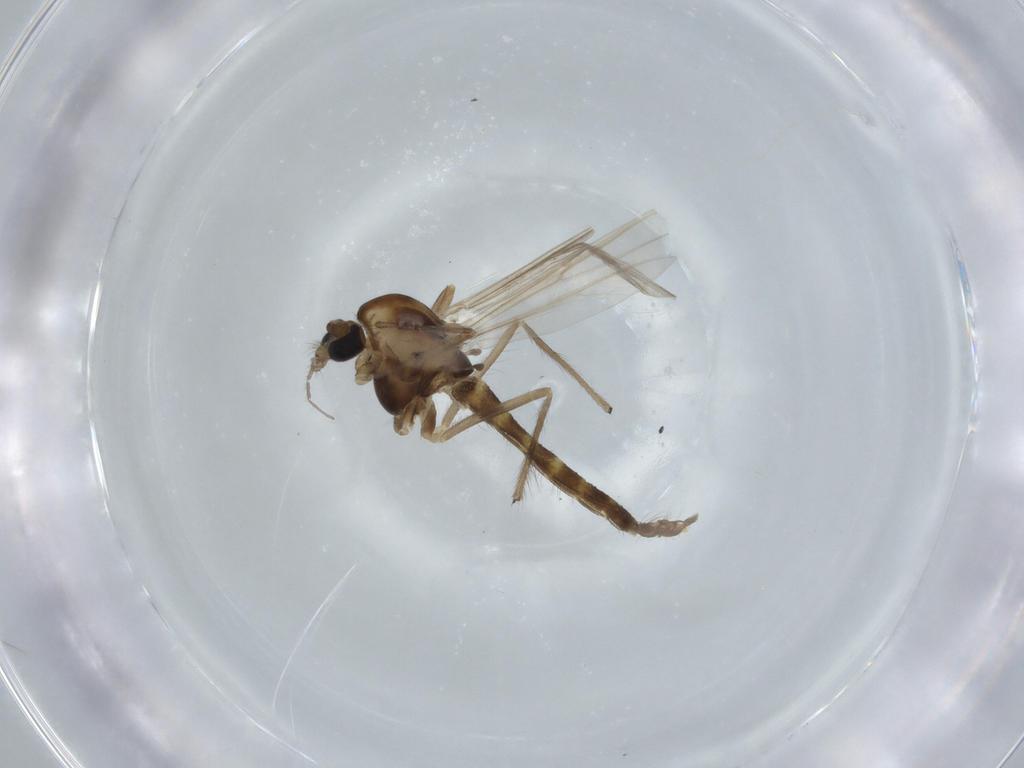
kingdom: Animalia
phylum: Arthropoda
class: Insecta
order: Diptera
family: Chironomidae
